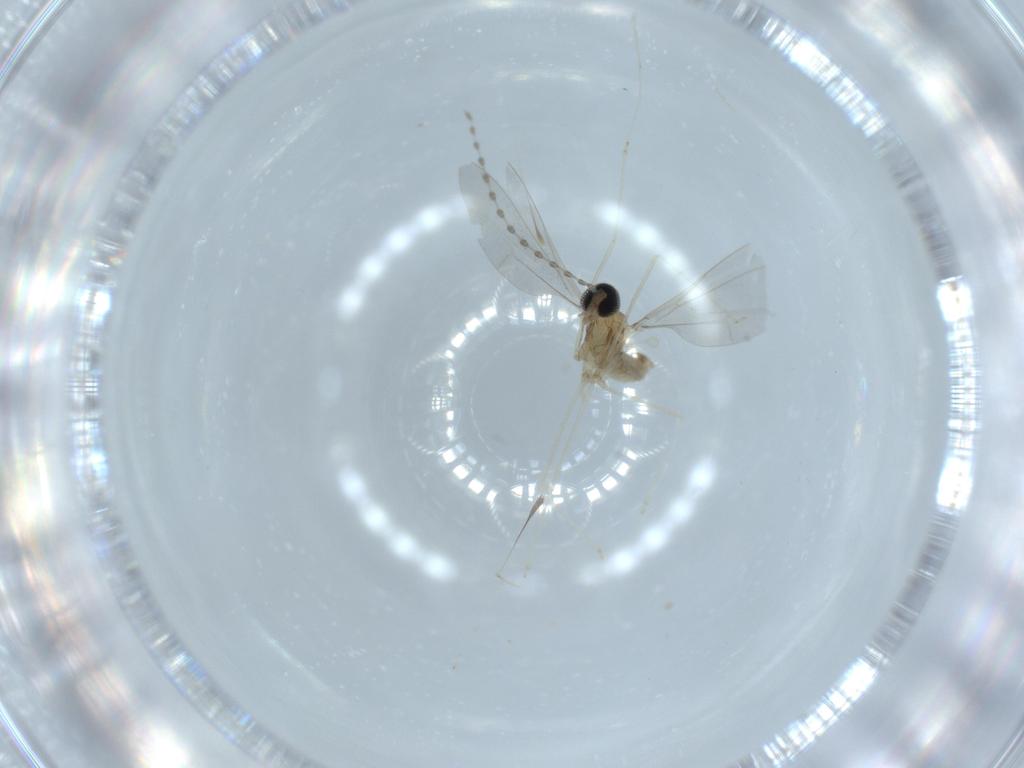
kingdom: Animalia
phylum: Arthropoda
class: Insecta
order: Diptera
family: Cecidomyiidae
